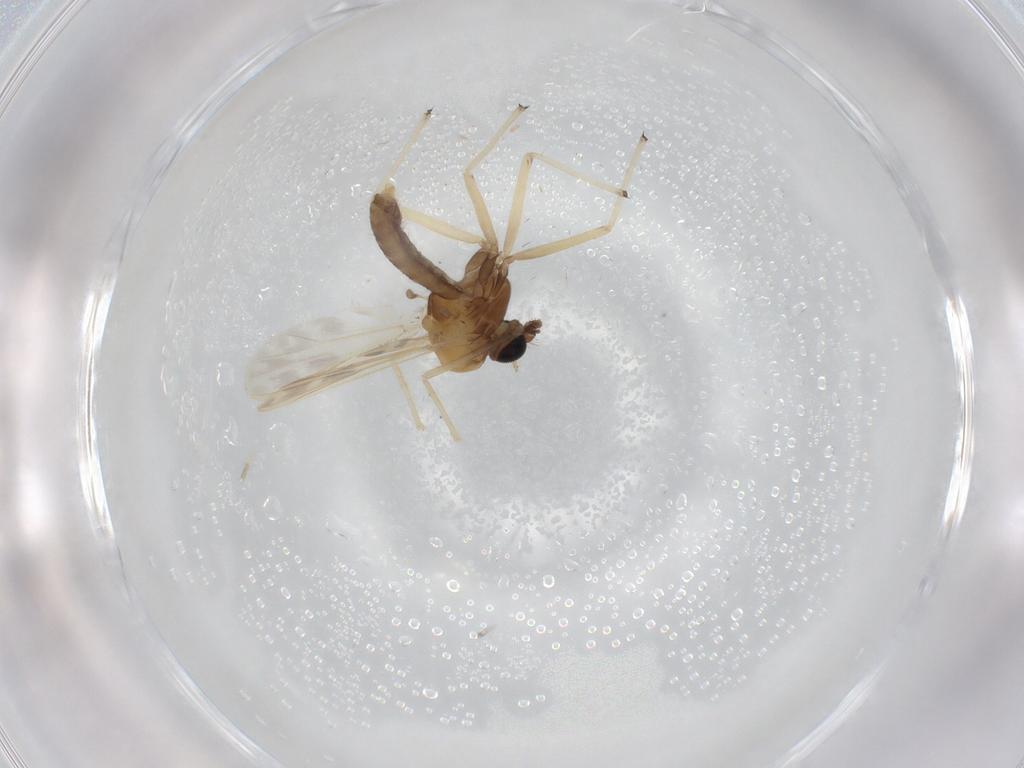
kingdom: Animalia
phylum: Arthropoda
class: Insecta
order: Diptera
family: Chironomidae
